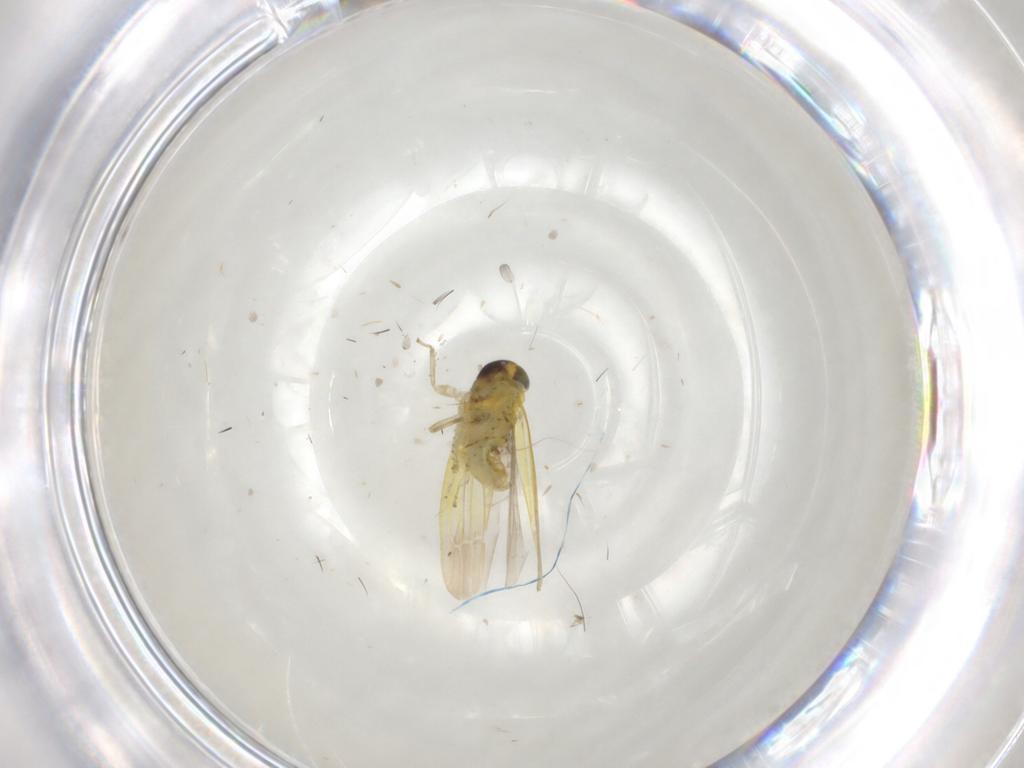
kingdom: Animalia
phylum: Arthropoda
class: Insecta
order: Hemiptera
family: Cicadellidae
